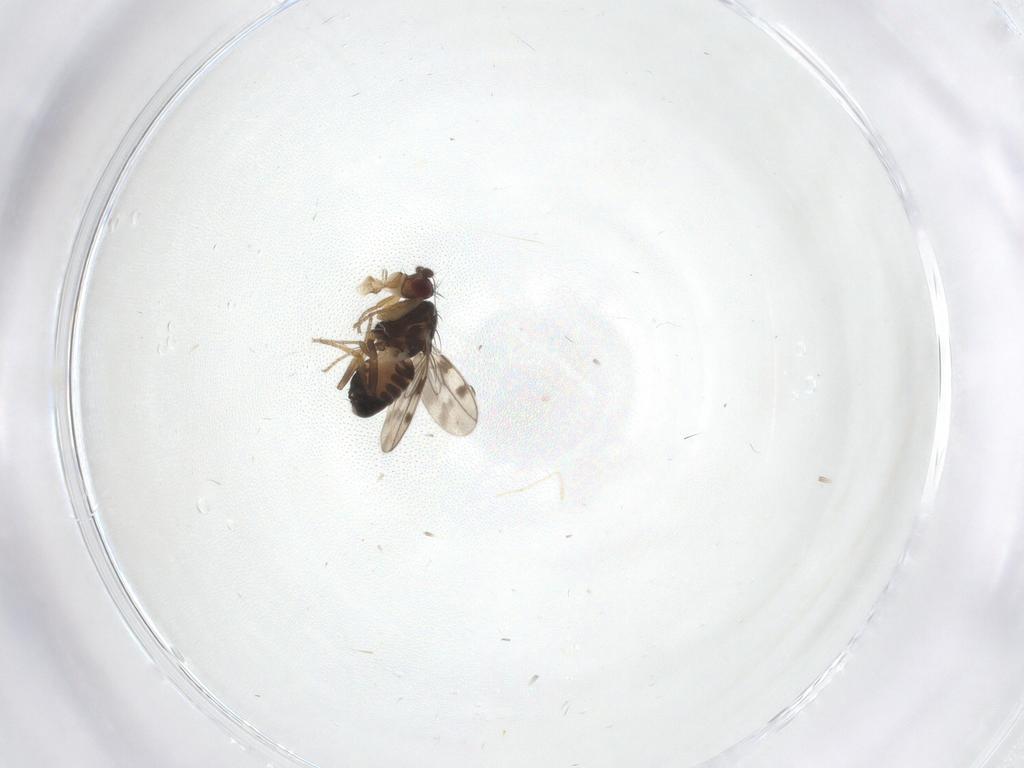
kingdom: Animalia
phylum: Arthropoda
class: Insecta
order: Diptera
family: Sphaeroceridae
